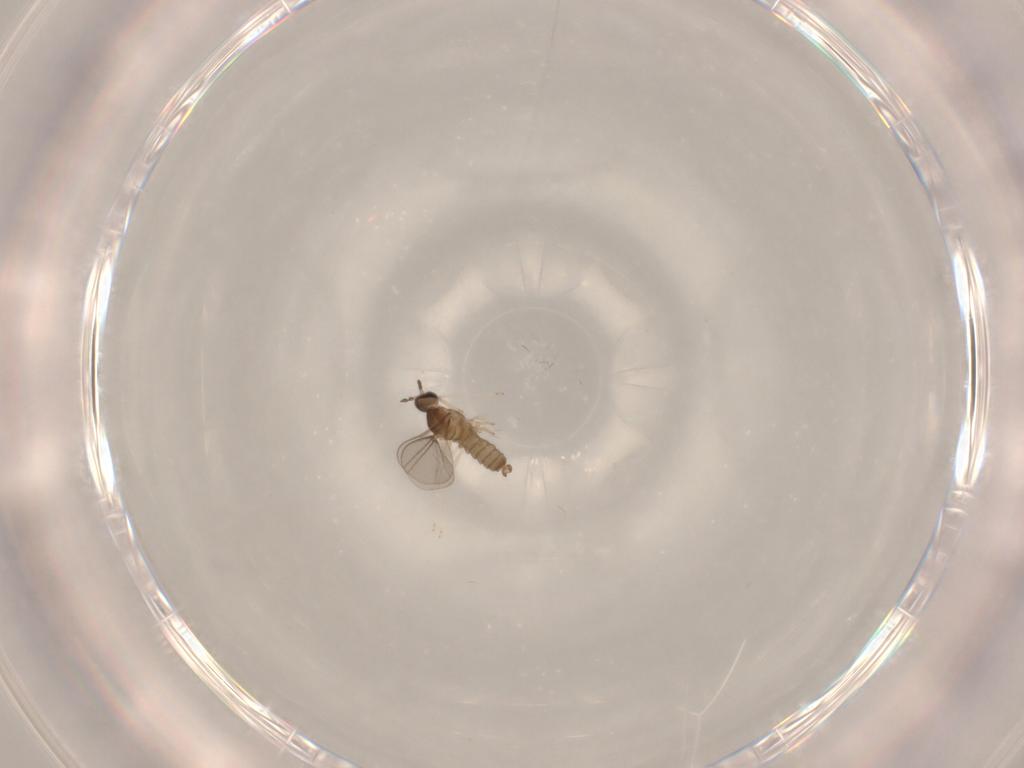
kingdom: Animalia
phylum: Arthropoda
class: Insecta
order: Diptera
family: Cecidomyiidae
